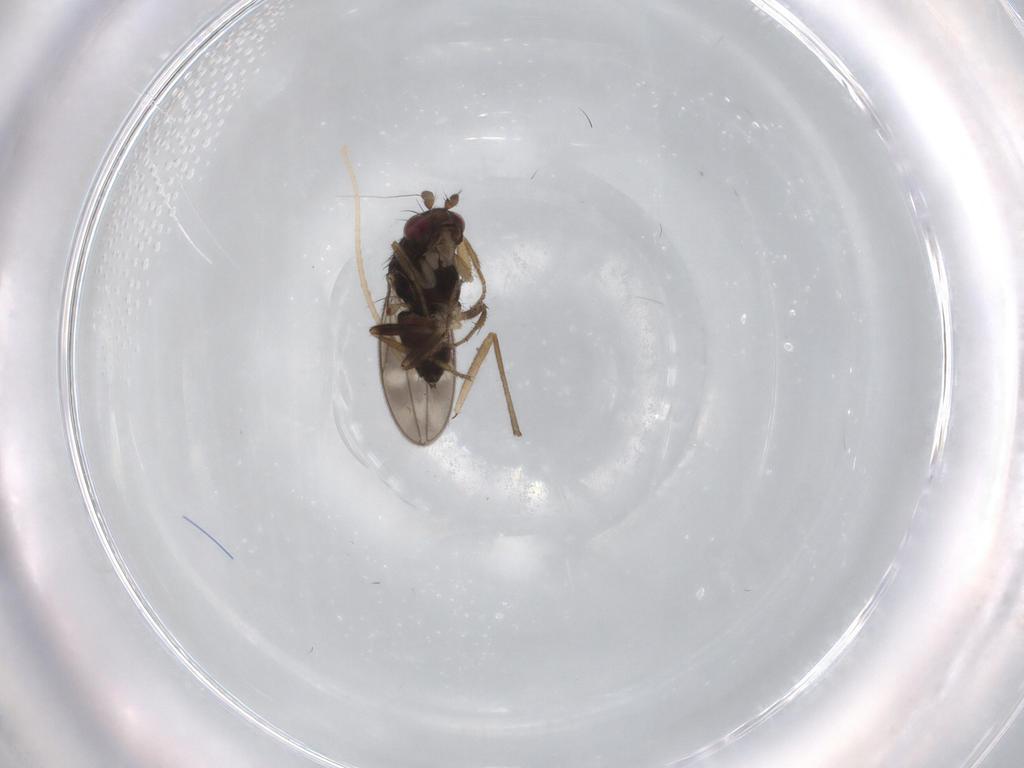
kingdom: Animalia
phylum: Arthropoda
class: Insecta
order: Diptera
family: Sphaeroceridae
